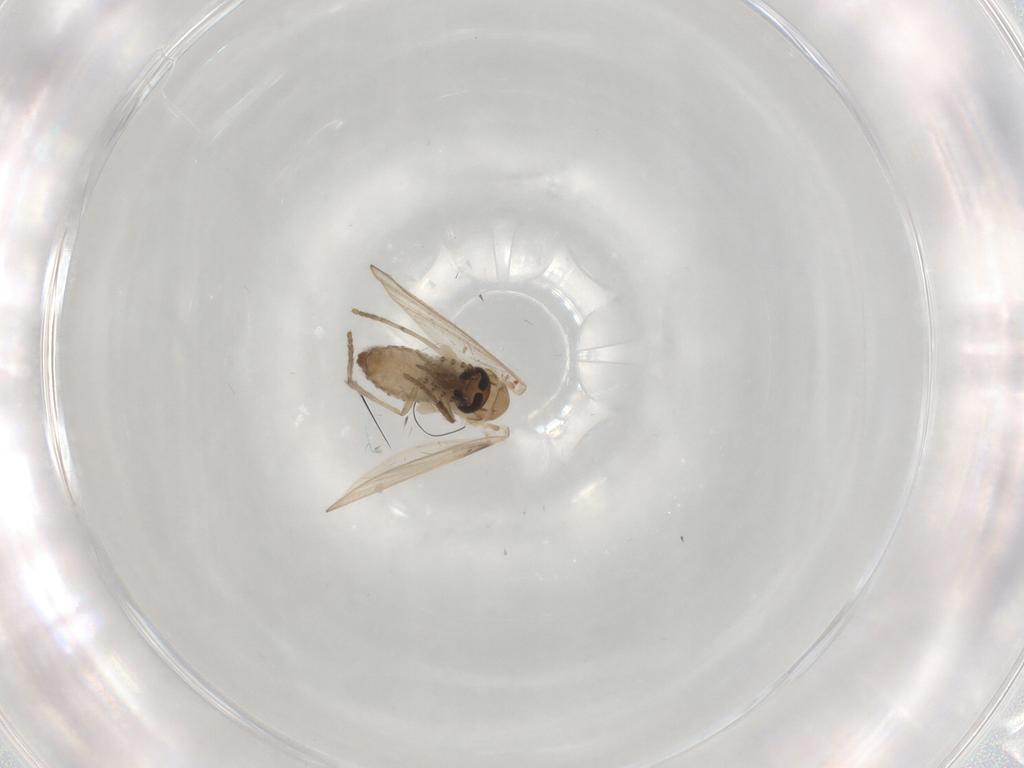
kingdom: Animalia
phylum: Arthropoda
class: Insecta
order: Diptera
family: Psychodidae
